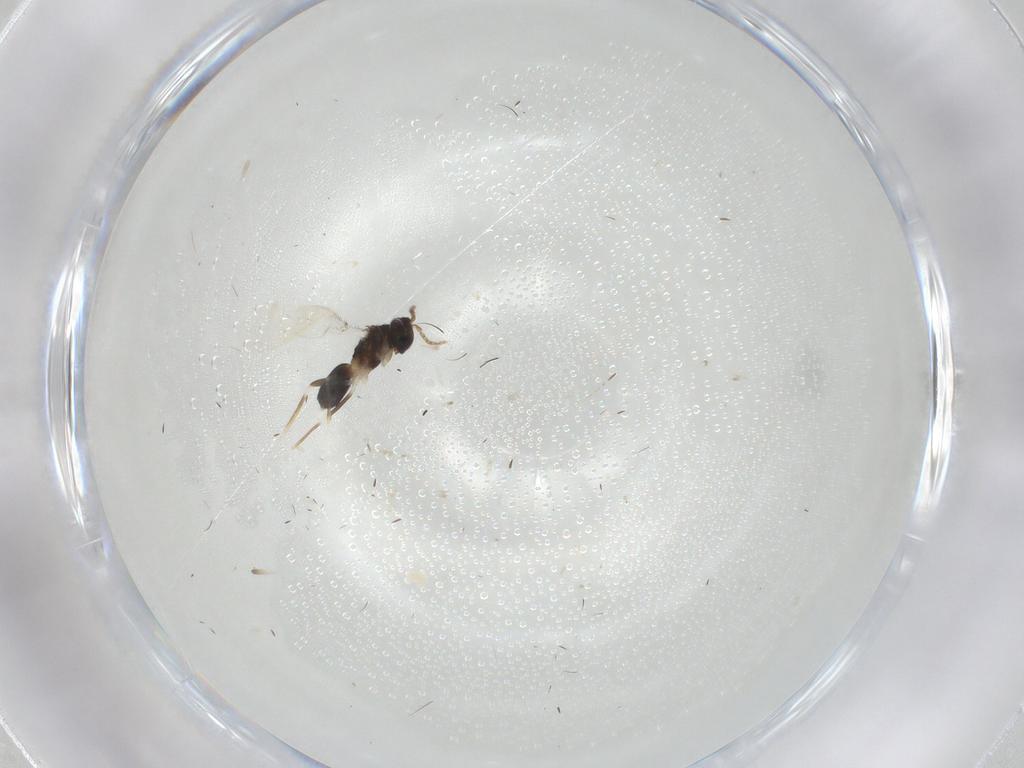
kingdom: Animalia
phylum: Arthropoda
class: Insecta
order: Hymenoptera
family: Eulophidae
